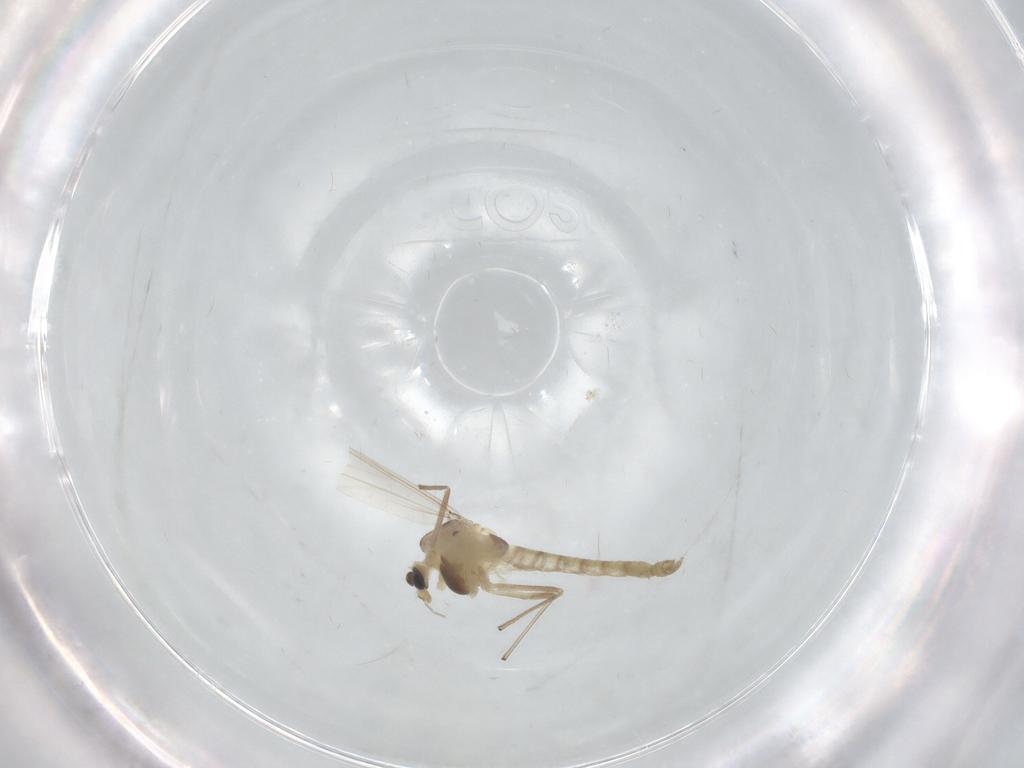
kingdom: Animalia
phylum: Arthropoda
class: Insecta
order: Diptera
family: Chironomidae
